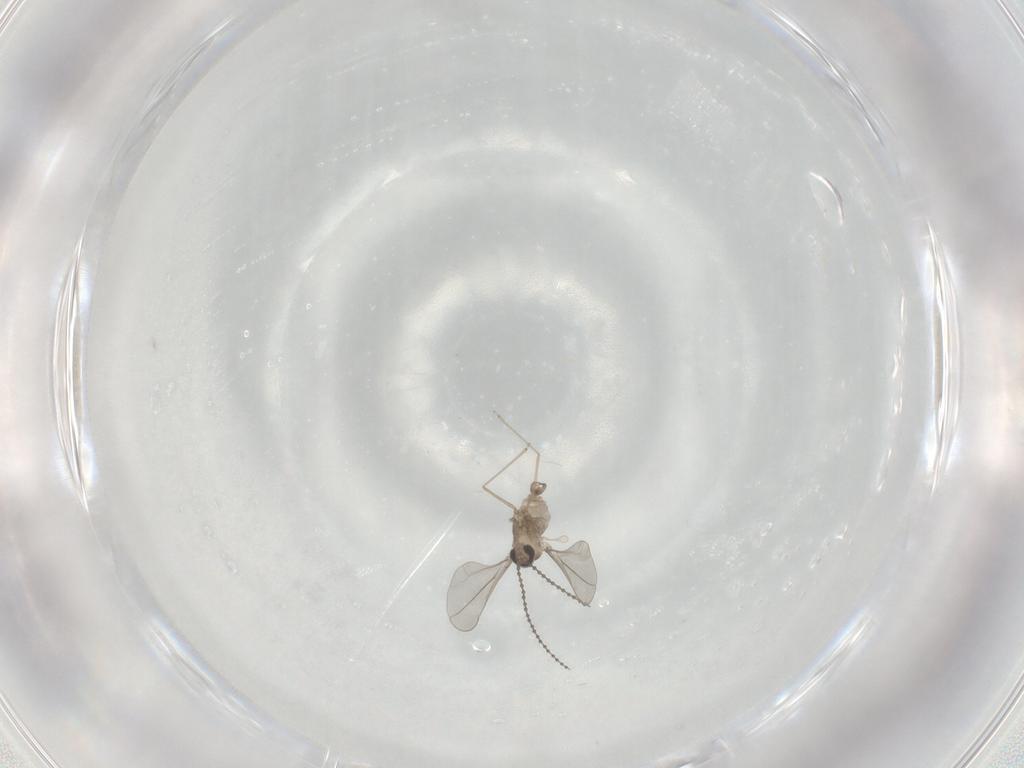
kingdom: Animalia
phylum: Arthropoda
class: Insecta
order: Diptera
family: Cecidomyiidae
